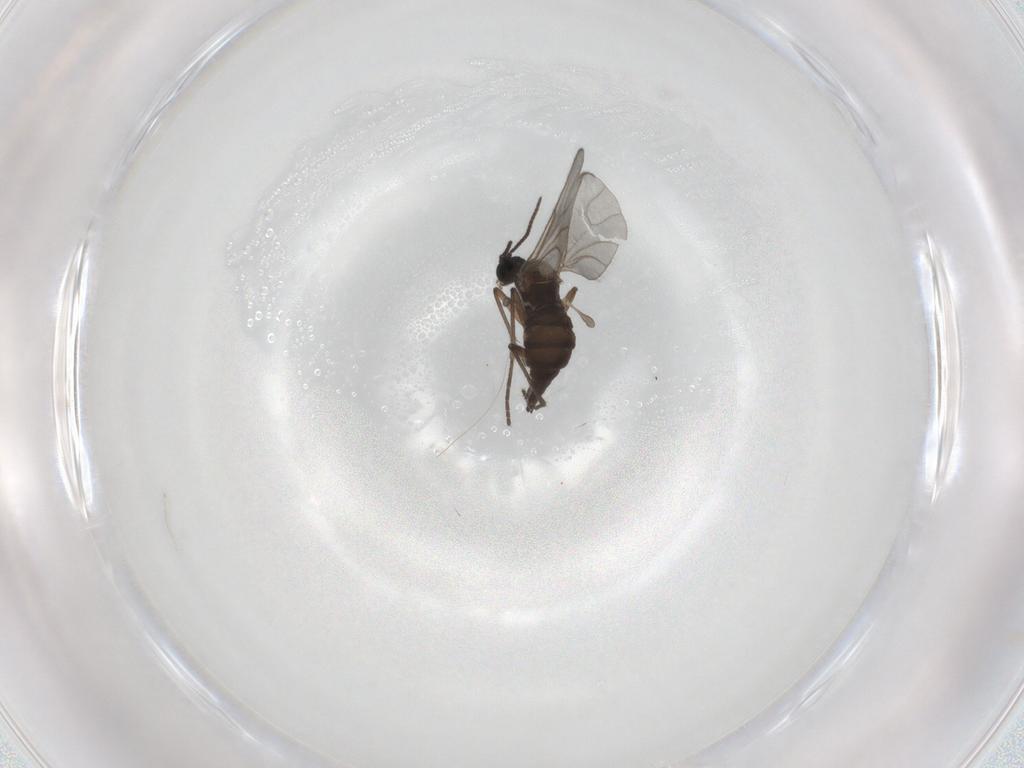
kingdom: Animalia
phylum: Arthropoda
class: Insecta
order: Diptera
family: Sciaridae
